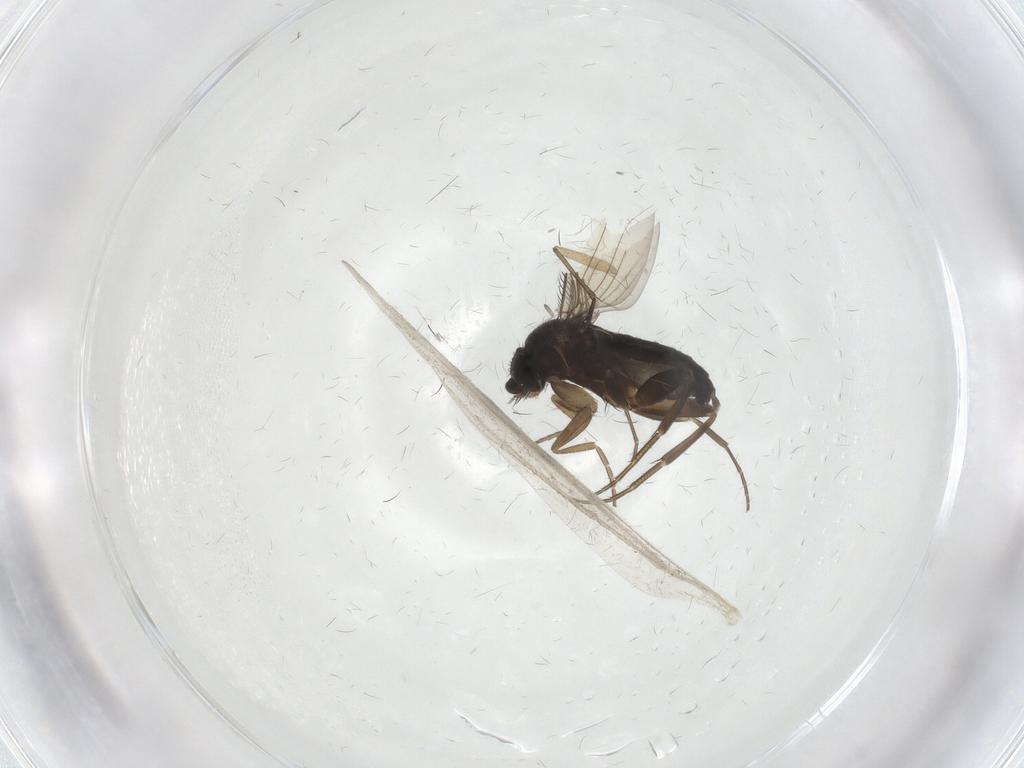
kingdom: Animalia
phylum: Arthropoda
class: Insecta
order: Diptera
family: Phoridae
